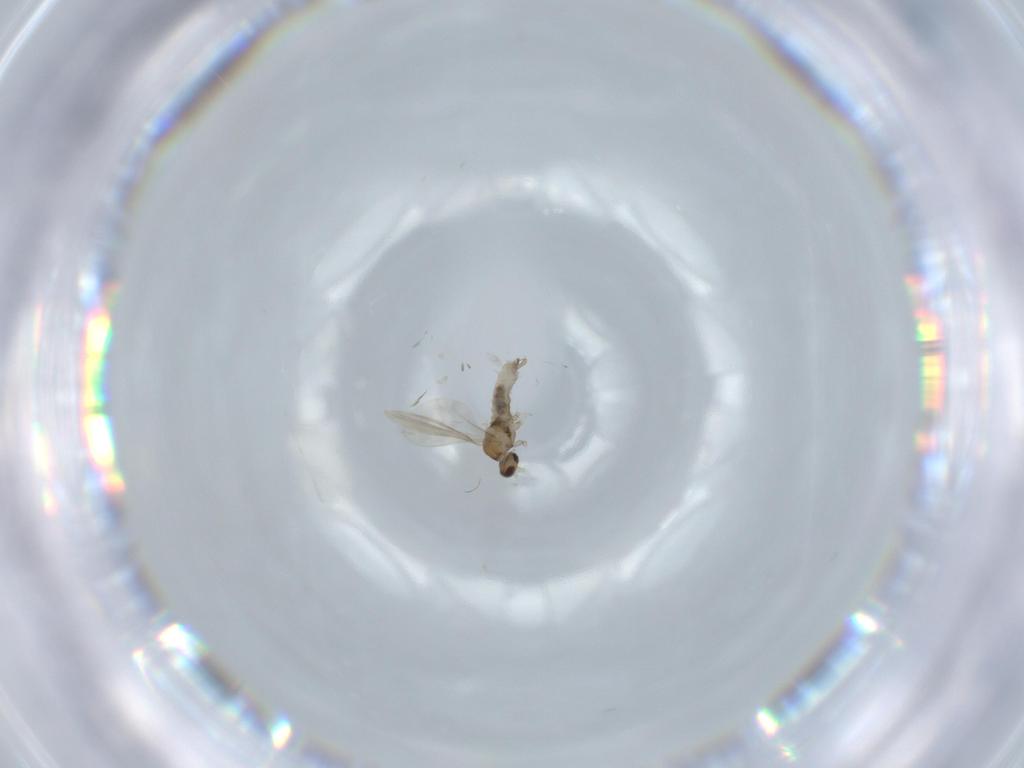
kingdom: Animalia
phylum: Arthropoda
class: Insecta
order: Diptera
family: Cecidomyiidae
